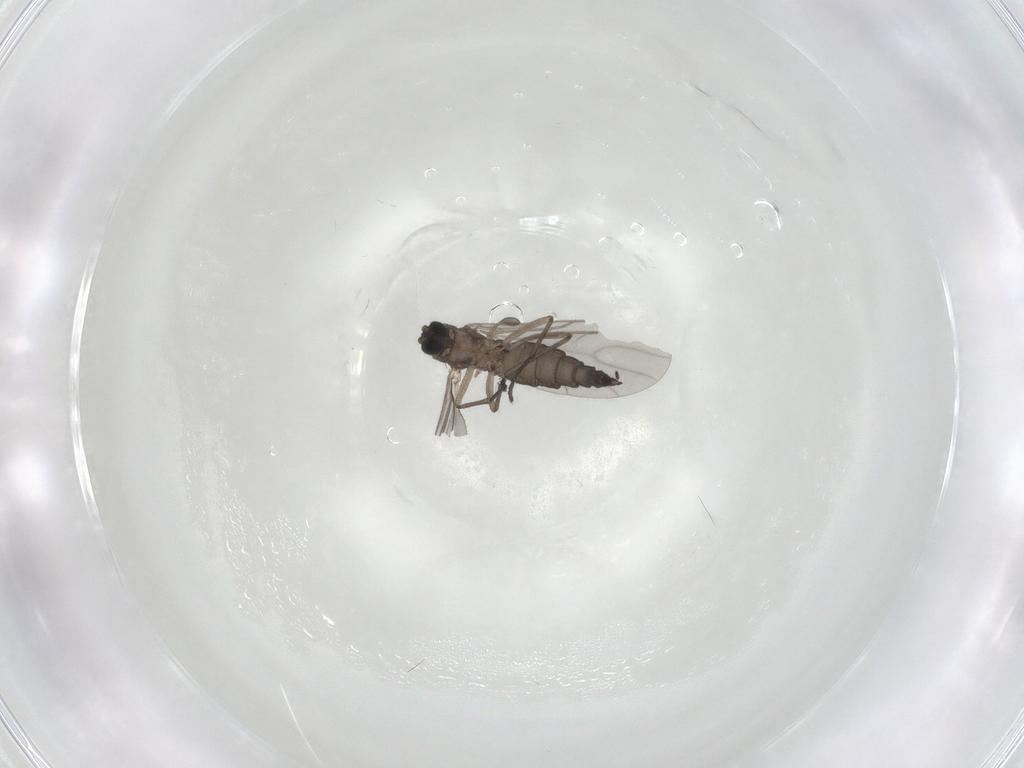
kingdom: Animalia
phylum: Arthropoda
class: Insecta
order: Diptera
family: Sciaridae
